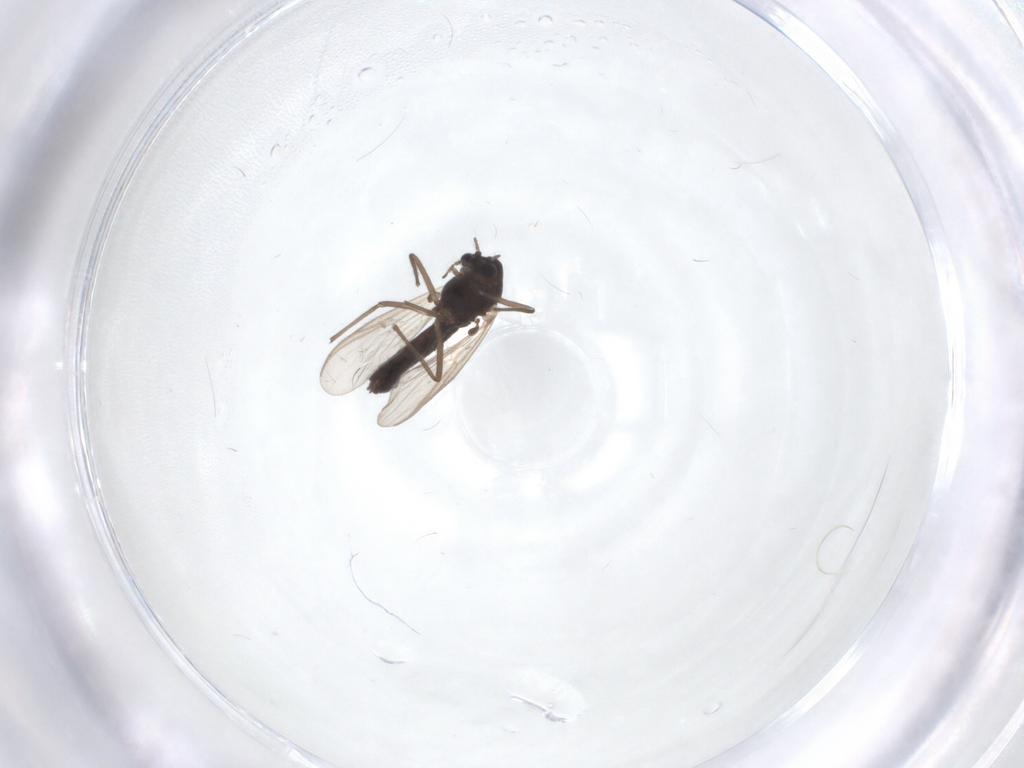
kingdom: Animalia
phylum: Arthropoda
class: Insecta
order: Diptera
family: Chironomidae
